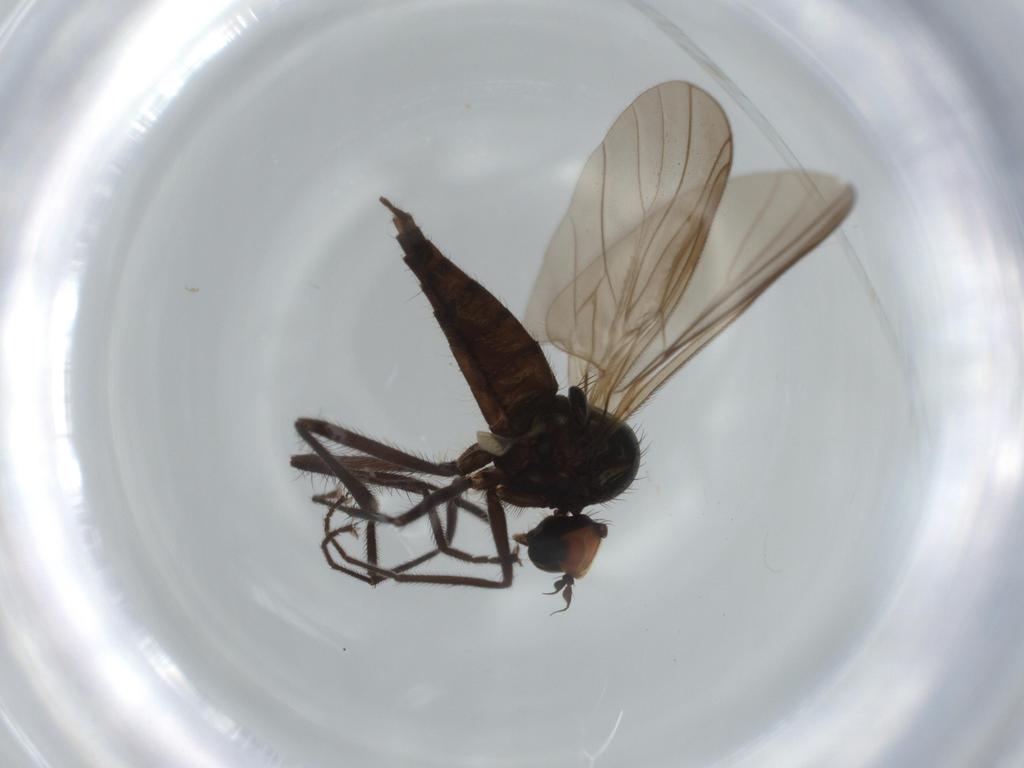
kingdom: Animalia
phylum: Arthropoda
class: Insecta
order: Diptera
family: Hybotidae
